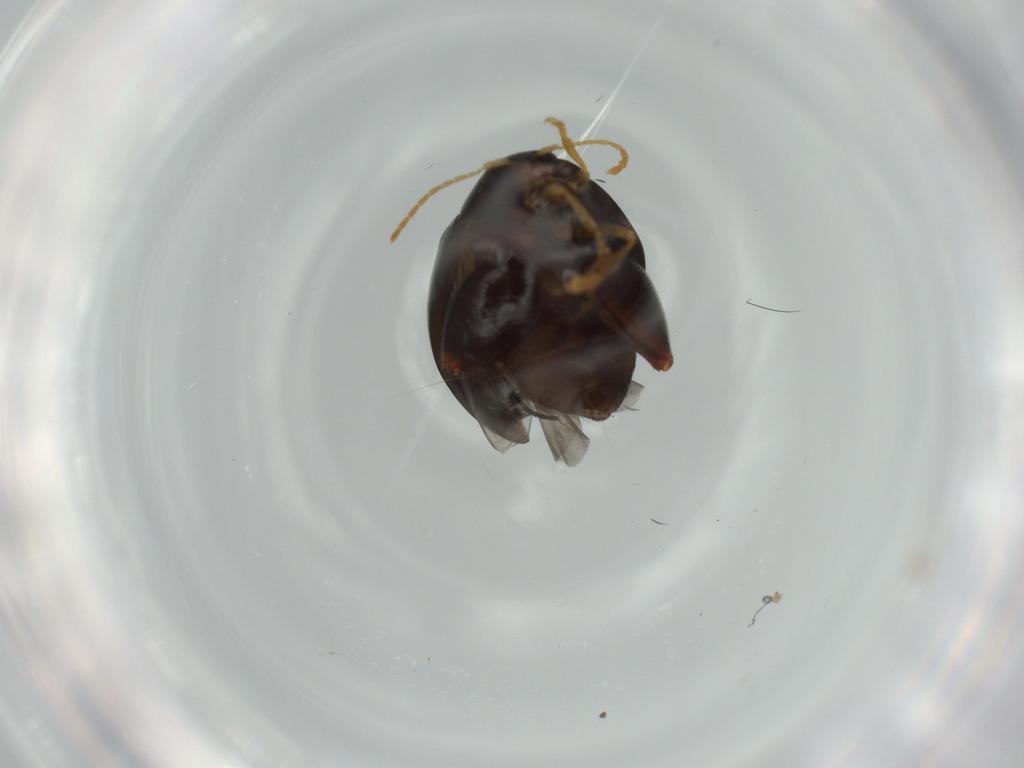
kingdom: Animalia
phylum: Arthropoda
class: Insecta
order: Coleoptera
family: Chrysomelidae
